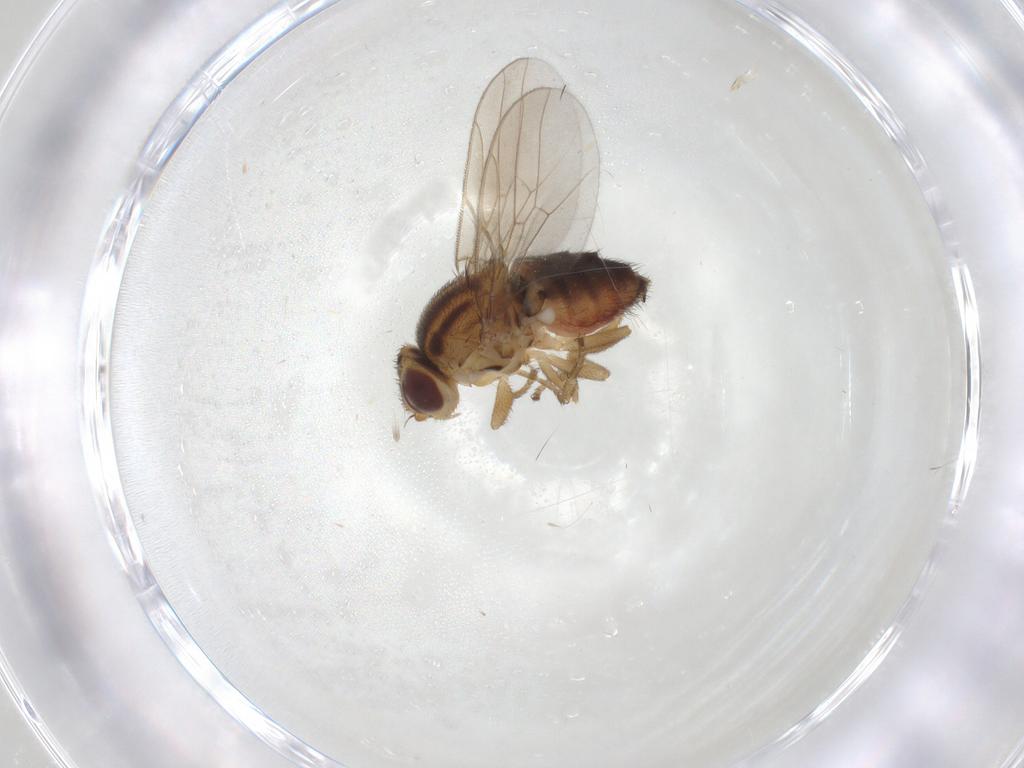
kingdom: Animalia
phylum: Arthropoda
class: Insecta
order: Diptera
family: Chloropidae
